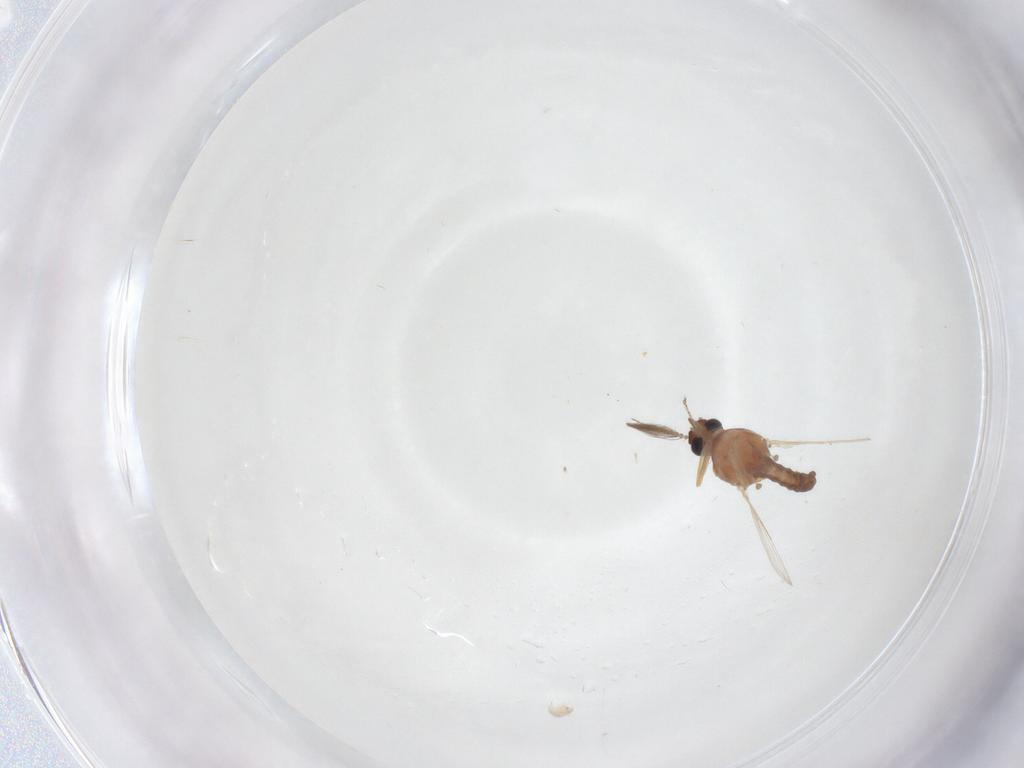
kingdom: Animalia
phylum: Arthropoda
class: Insecta
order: Diptera
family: Ceratopogonidae
